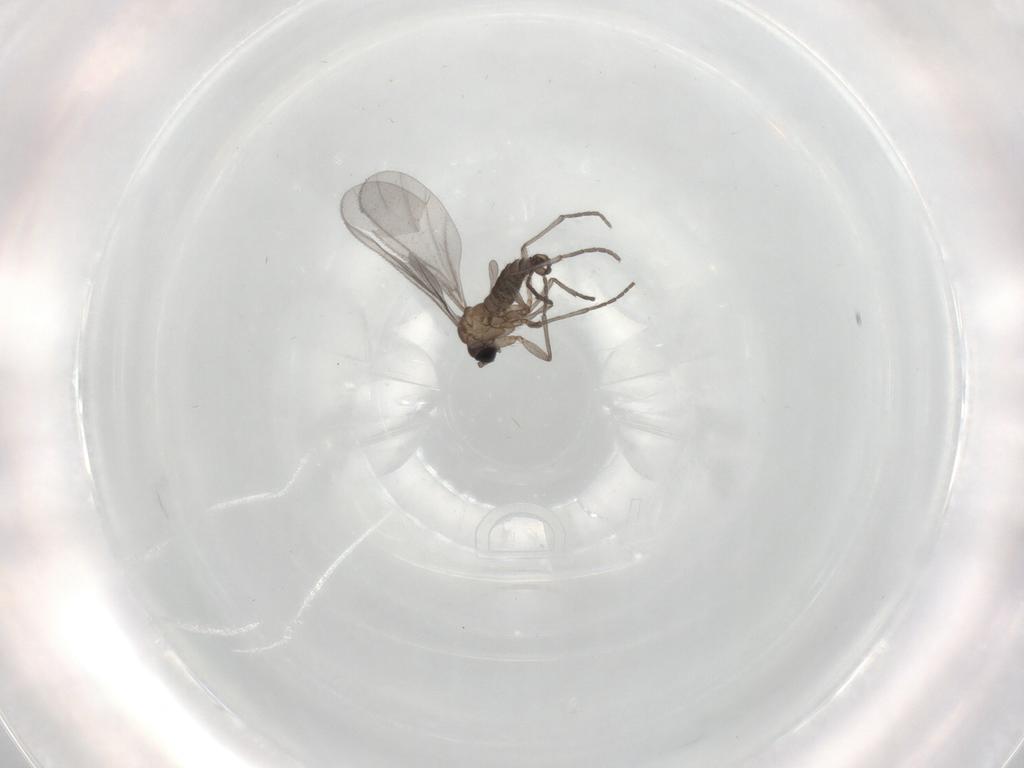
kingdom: Animalia
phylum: Arthropoda
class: Insecta
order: Diptera
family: Sciaridae
